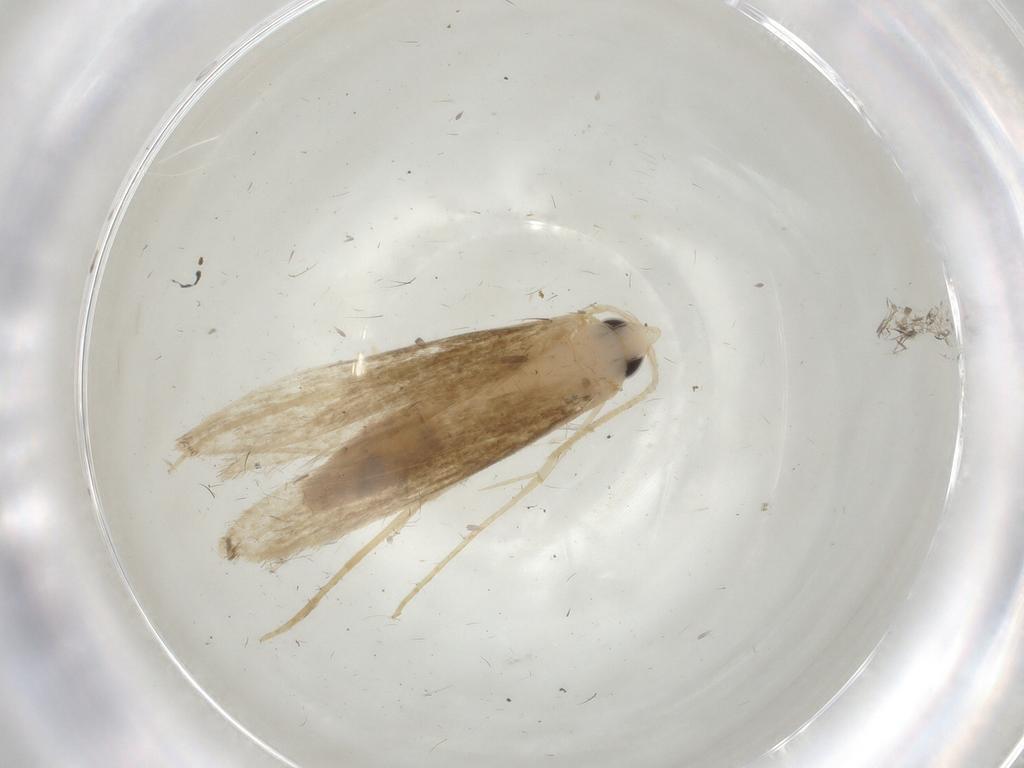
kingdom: Animalia
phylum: Arthropoda
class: Insecta
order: Lepidoptera
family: Lyonetiidae
